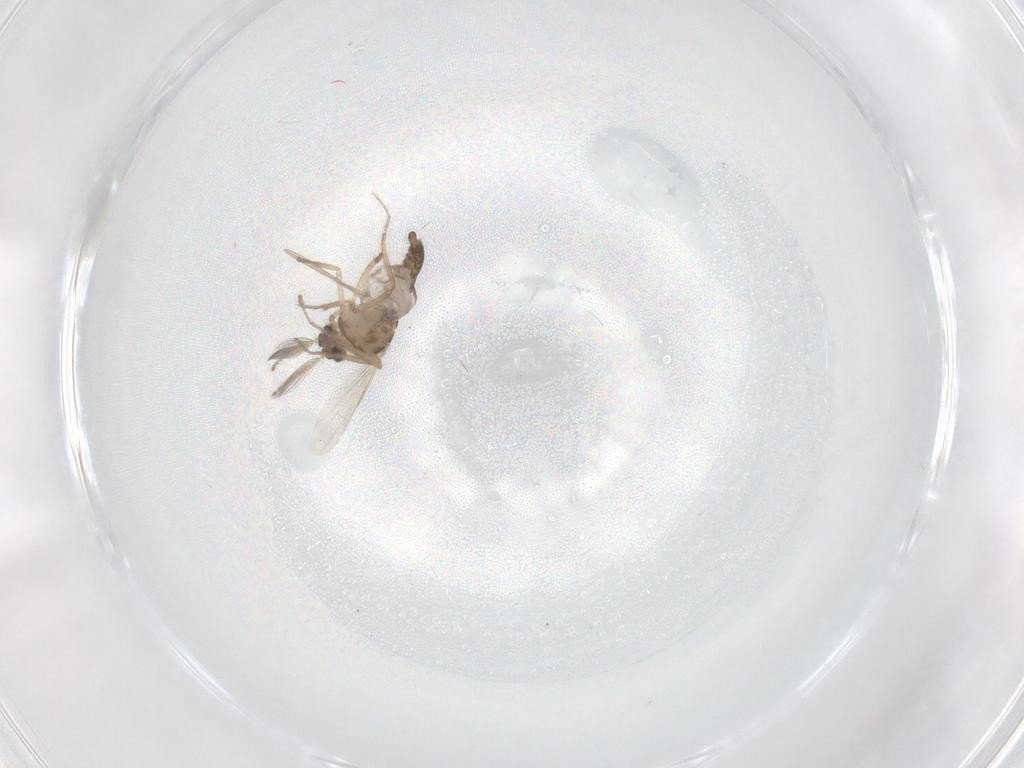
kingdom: Animalia
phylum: Arthropoda
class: Insecta
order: Diptera
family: Ceratopogonidae
